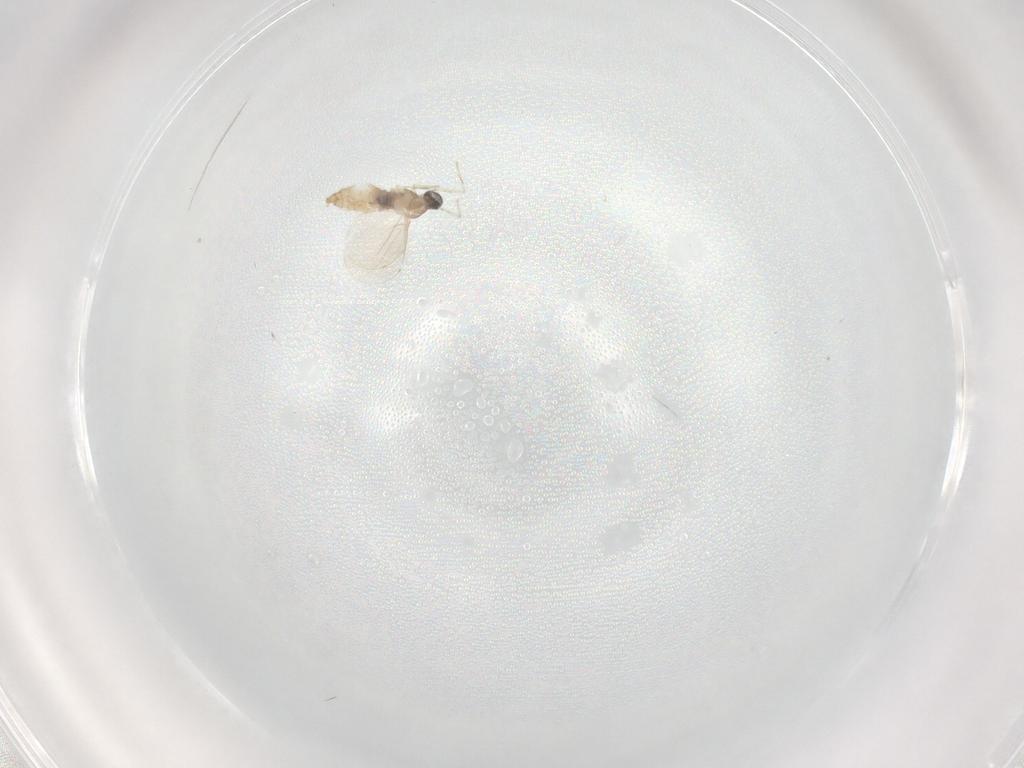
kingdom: Animalia
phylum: Arthropoda
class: Insecta
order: Diptera
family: Cecidomyiidae
